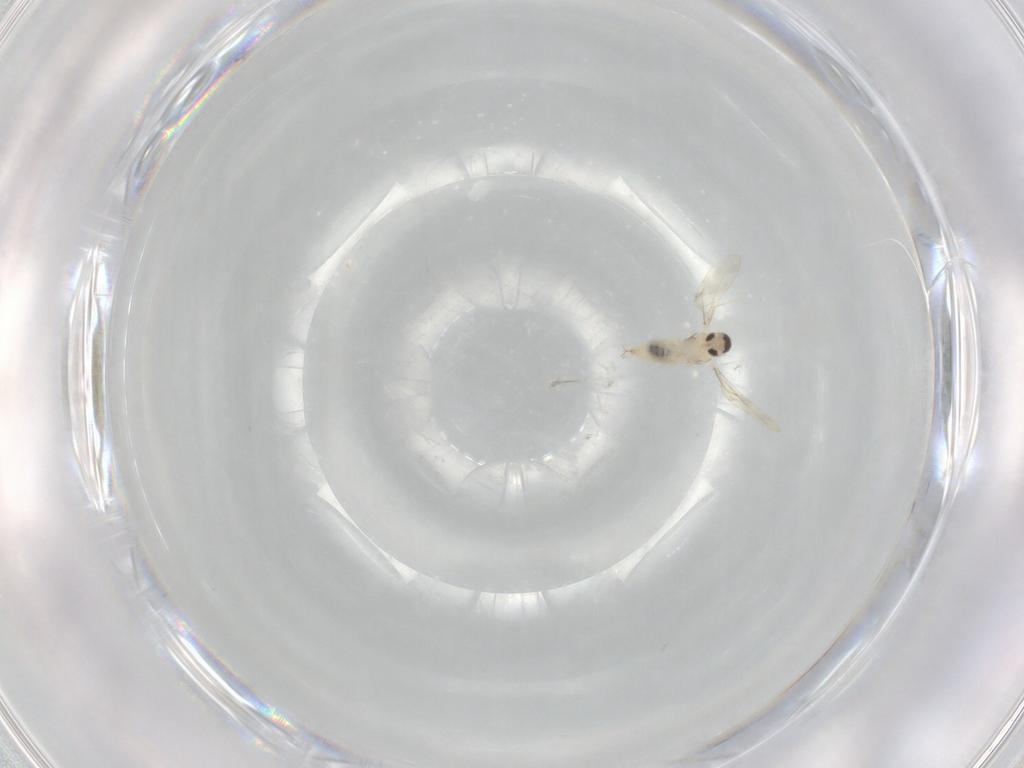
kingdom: Animalia
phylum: Arthropoda
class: Insecta
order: Diptera
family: Cecidomyiidae
